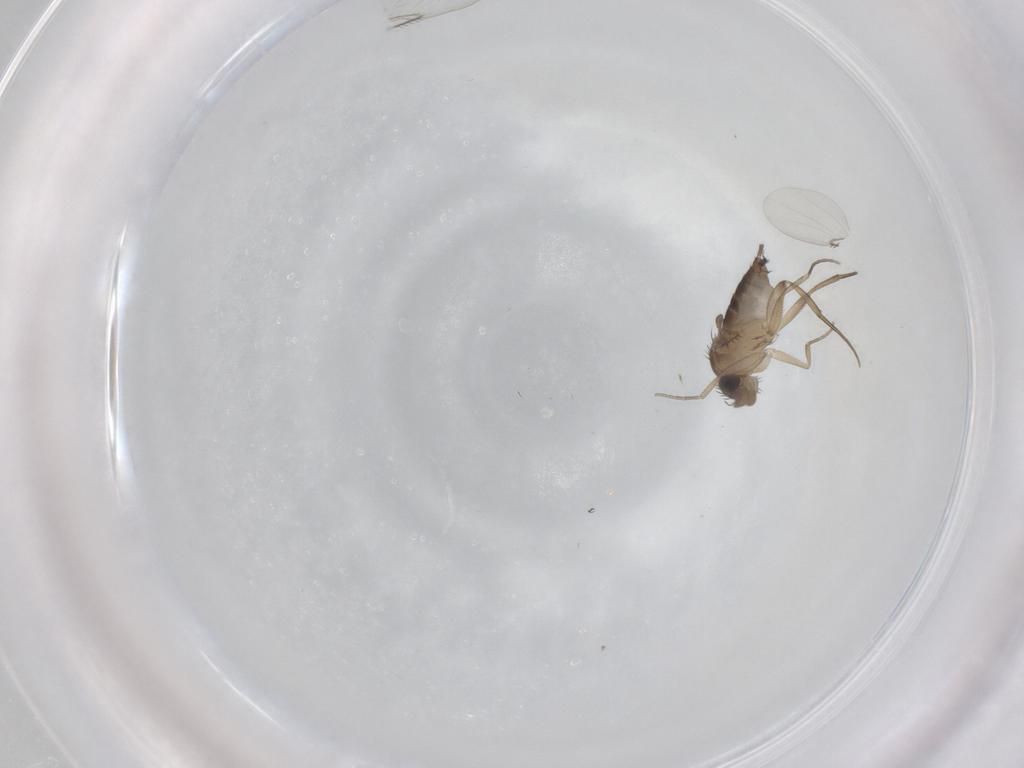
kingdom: Animalia
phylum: Arthropoda
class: Insecta
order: Diptera
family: Phoridae
